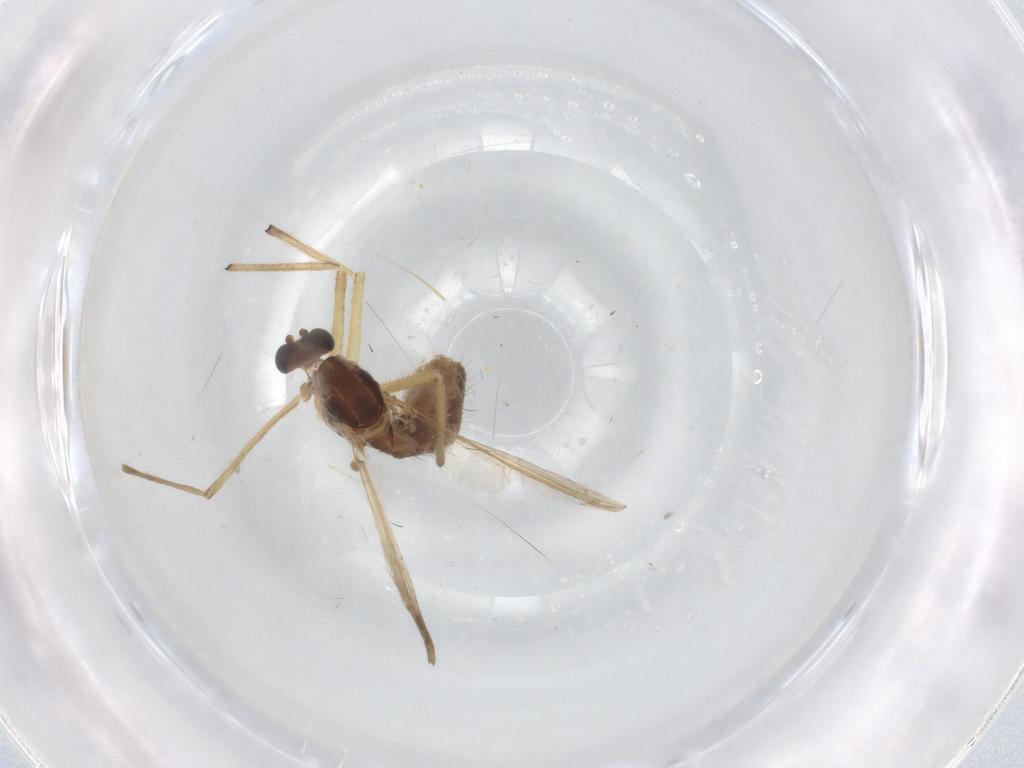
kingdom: Animalia
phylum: Arthropoda
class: Insecta
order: Diptera
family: Chironomidae
